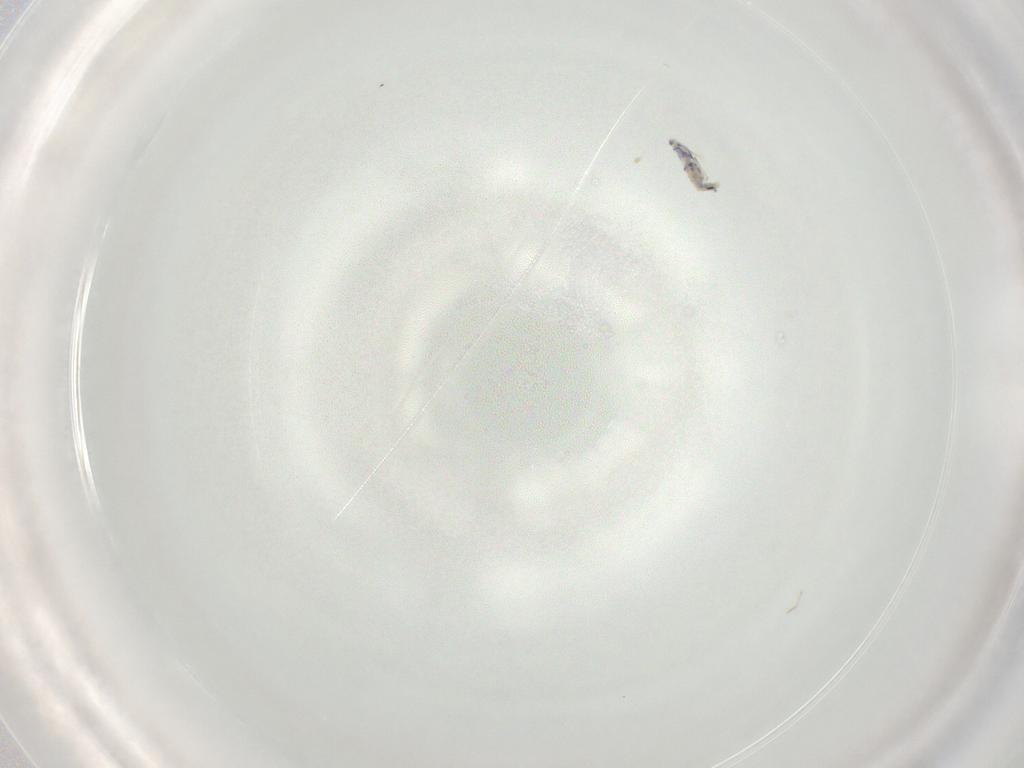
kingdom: Animalia
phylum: Arthropoda
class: Collembola
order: Entomobryomorpha
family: Entomobryidae
